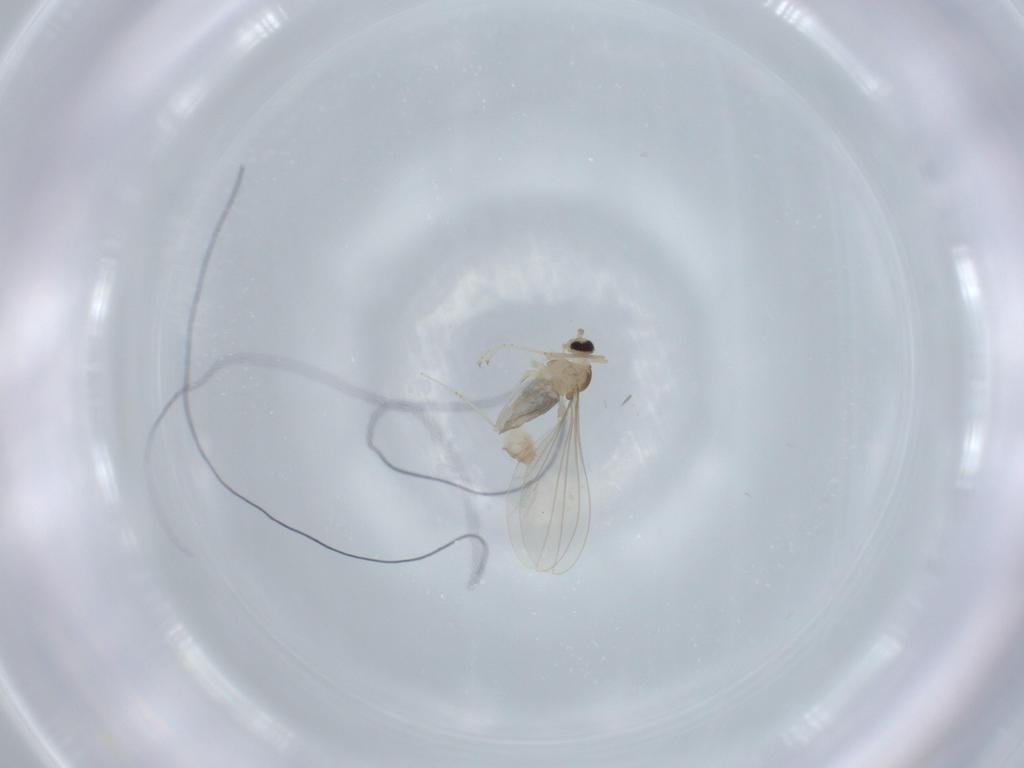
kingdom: Animalia
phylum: Arthropoda
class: Insecta
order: Diptera
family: Cecidomyiidae
